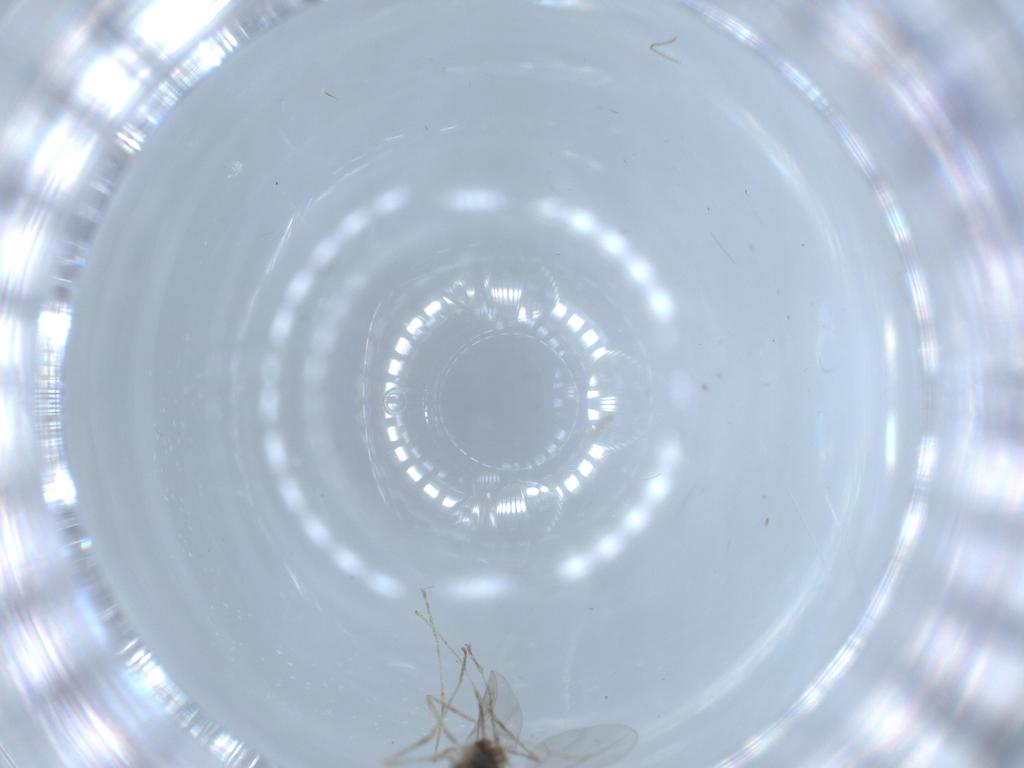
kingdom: Animalia
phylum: Arthropoda
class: Insecta
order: Diptera
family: Cecidomyiidae
